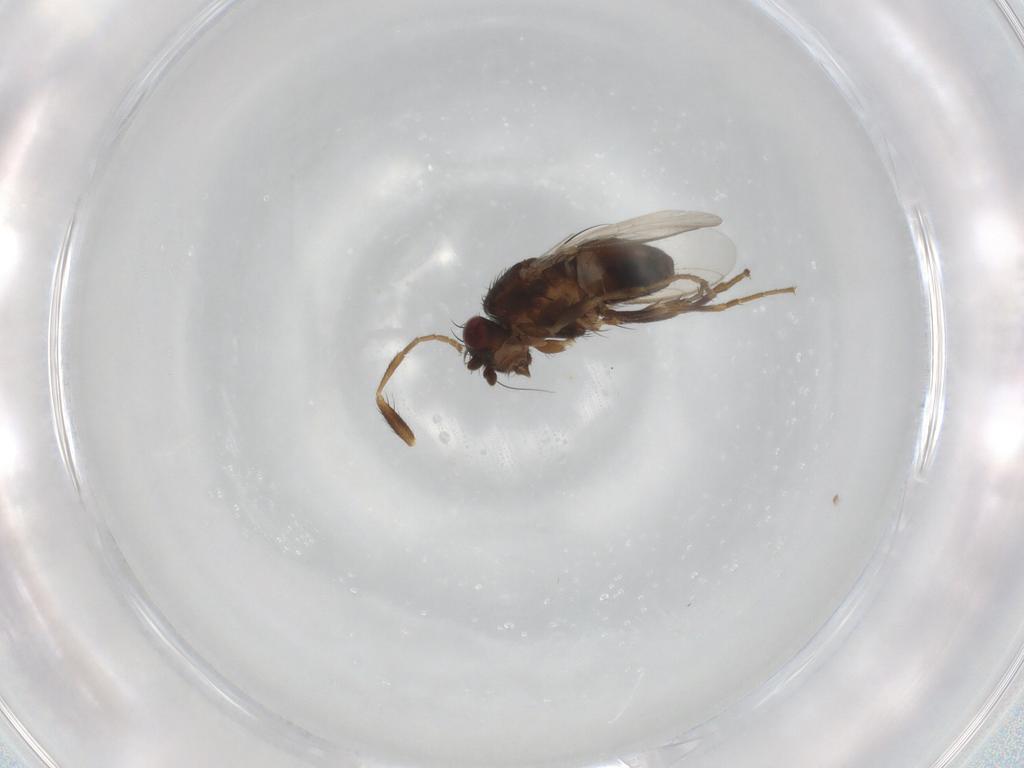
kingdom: Animalia
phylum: Arthropoda
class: Insecta
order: Diptera
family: Sphaeroceridae
